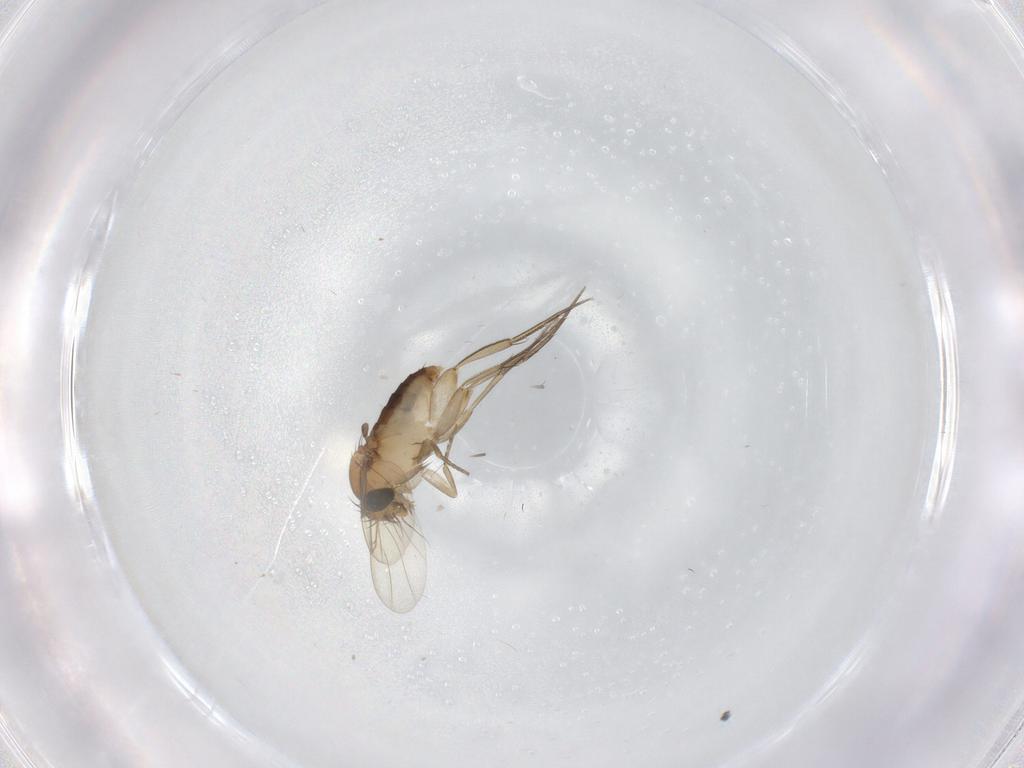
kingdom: Animalia
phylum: Arthropoda
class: Insecta
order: Diptera
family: Phoridae
